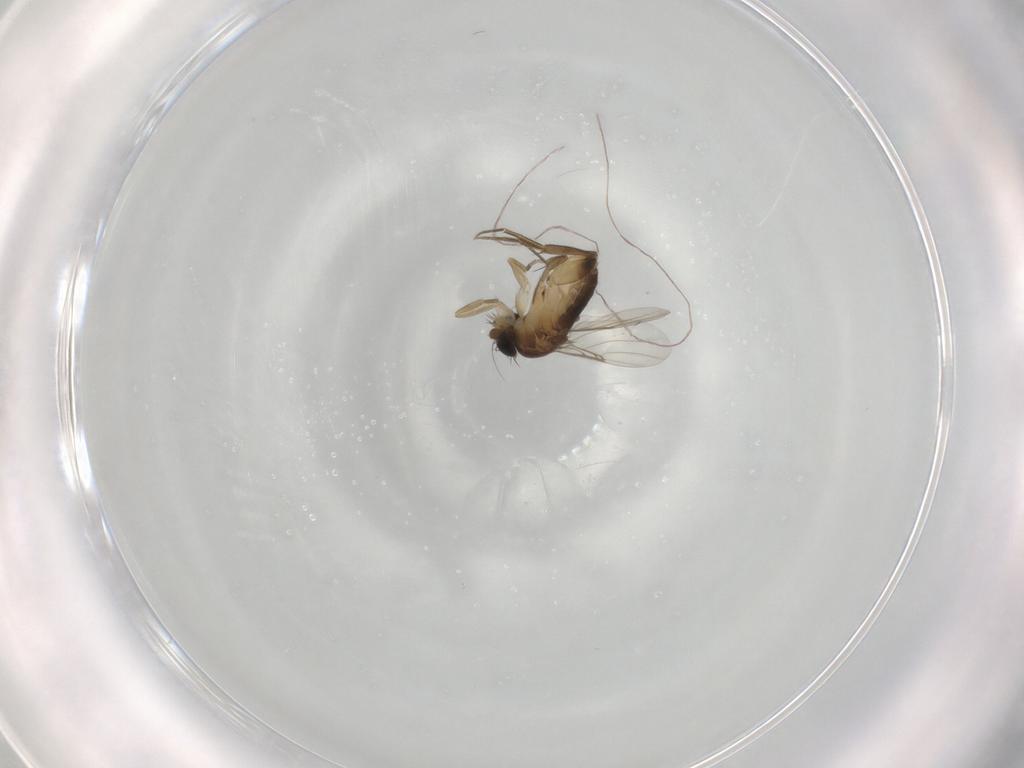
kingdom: Animalia
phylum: Arthropoda
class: Insecta
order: Diptera
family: Phoridae
